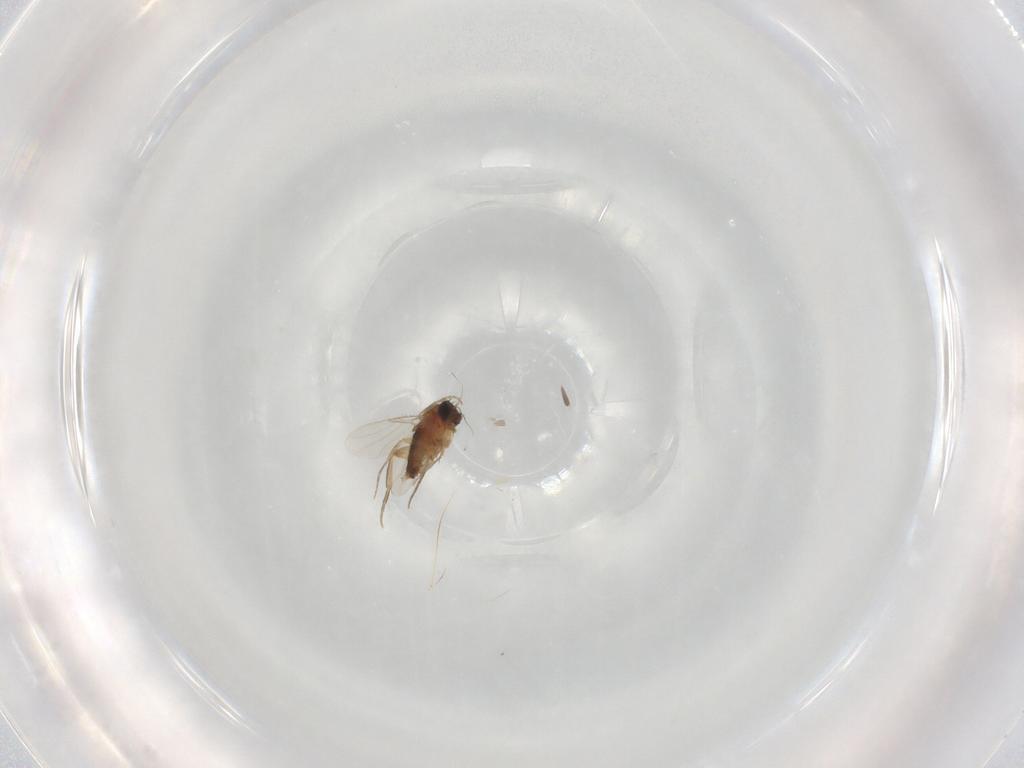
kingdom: Animalia
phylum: Arthropoda
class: Insecta
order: Diptera
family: Phoridae
